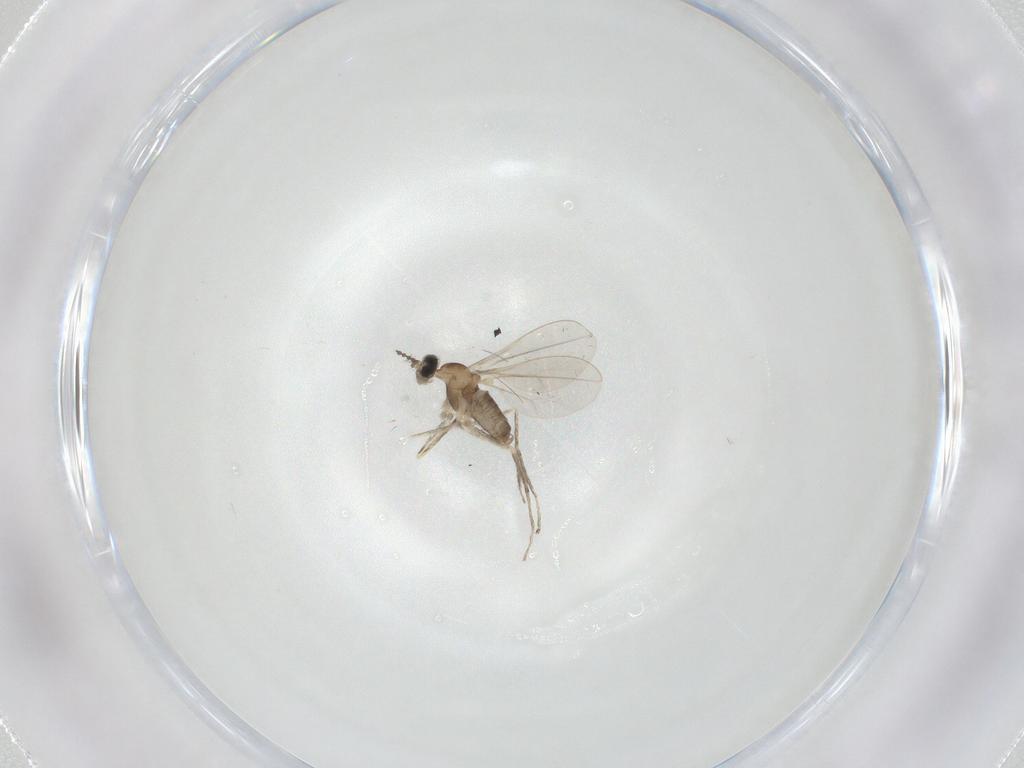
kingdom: Animalia
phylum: Arthropoda
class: Insecta
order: Diptera
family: Cecidomyiidae
